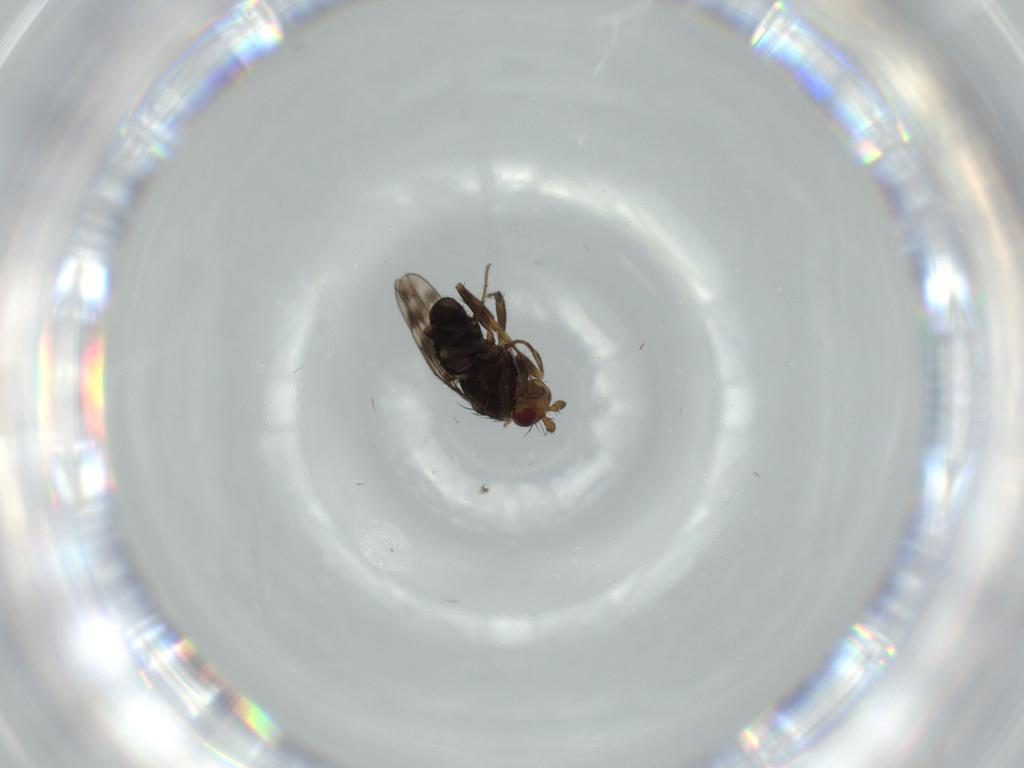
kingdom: Animalia
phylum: Arthropoda
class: Insecta
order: Diptera
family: Sphaeroceridae
